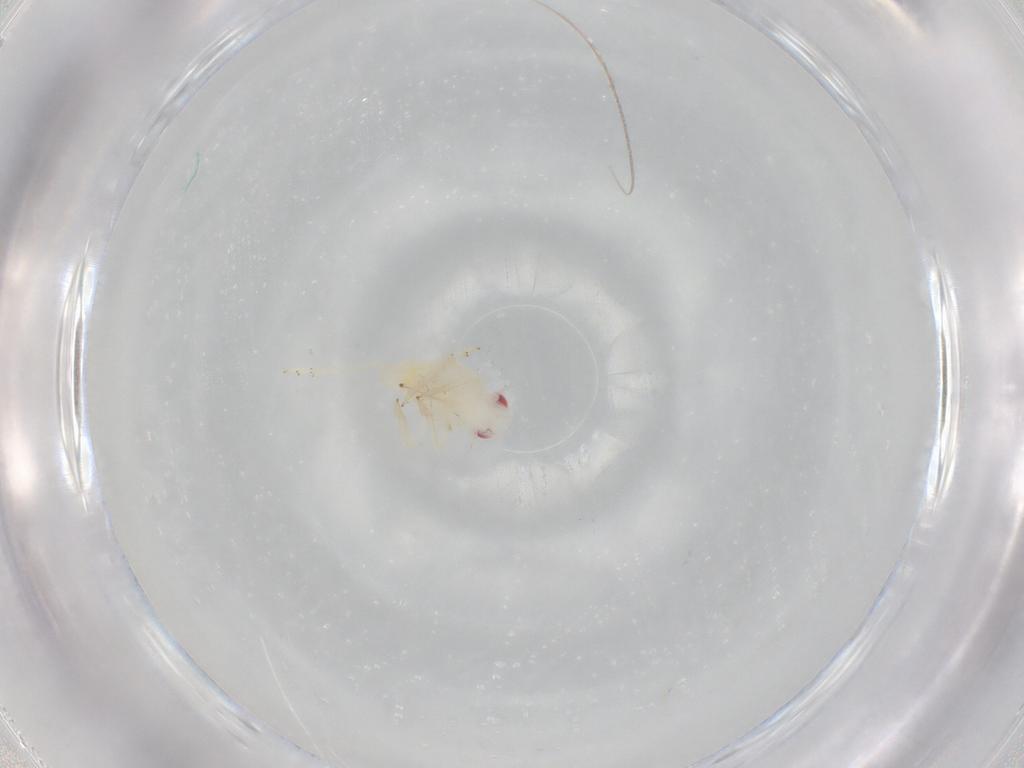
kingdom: Animalia
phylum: Arthropoda
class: Insecta
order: Hemiptera
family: Tropiduchidae
